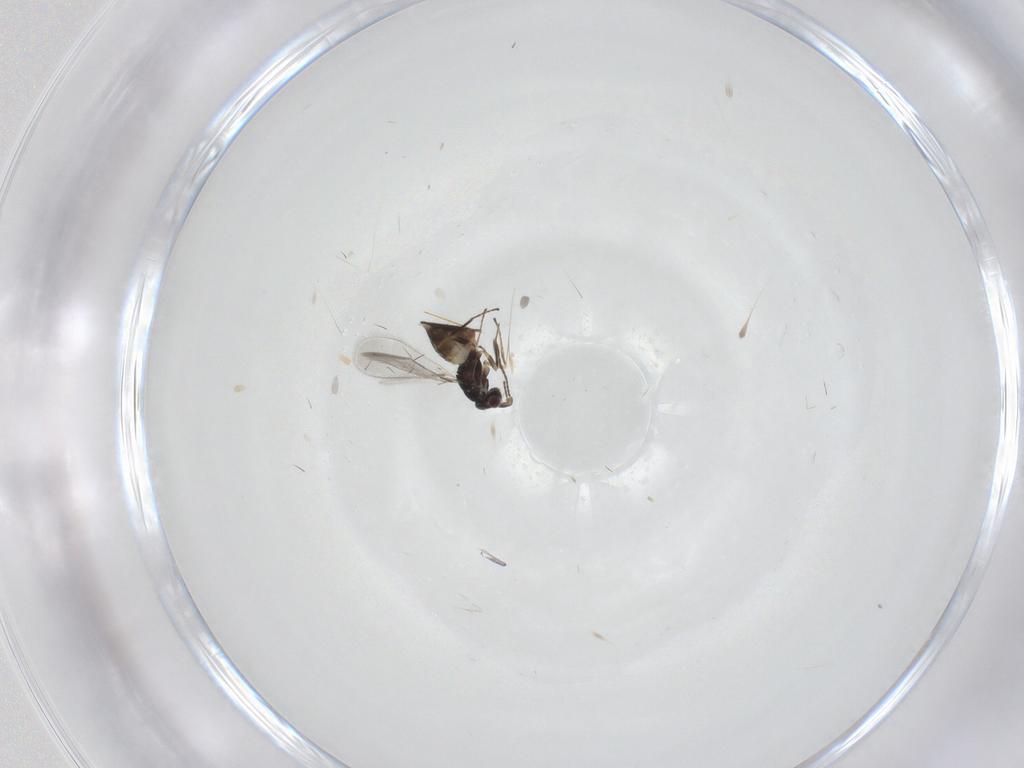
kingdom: Animalia
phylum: Arthropoda
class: Insecta
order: Hymenoptera
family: Mymaridae
